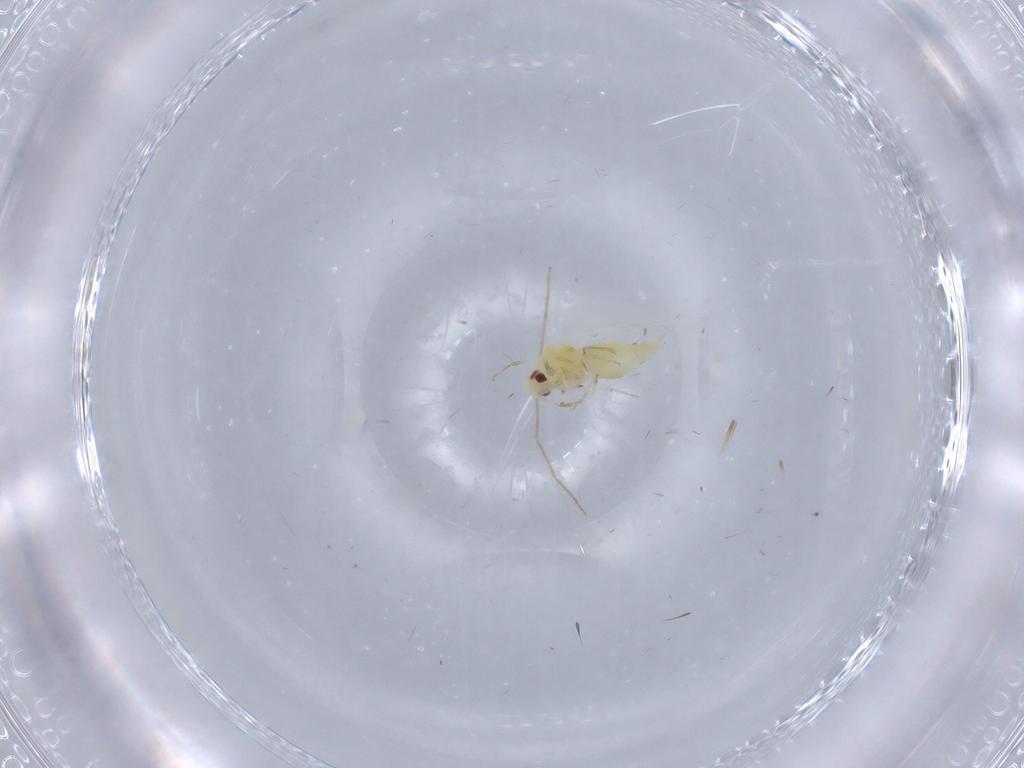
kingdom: Animalia
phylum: Arthropoda
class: Insecta
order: Hemiptera
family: Aleyrodidae
